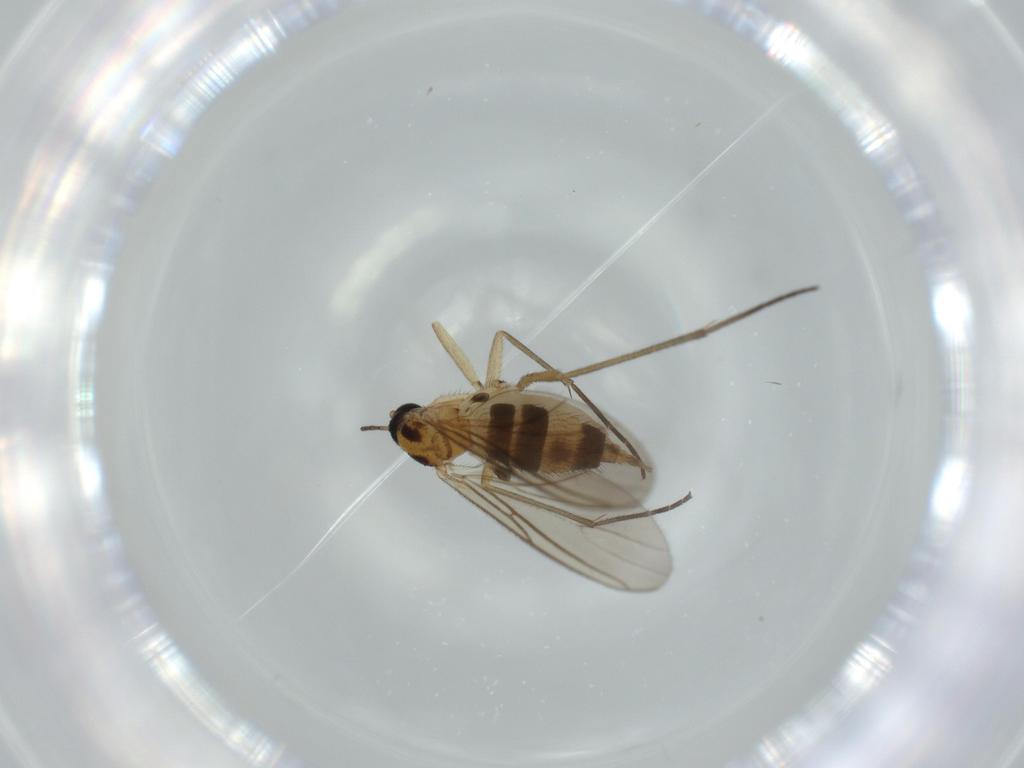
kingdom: Animalia
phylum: Arthropoda
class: Insecta
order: Diptera
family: Sciaridae
